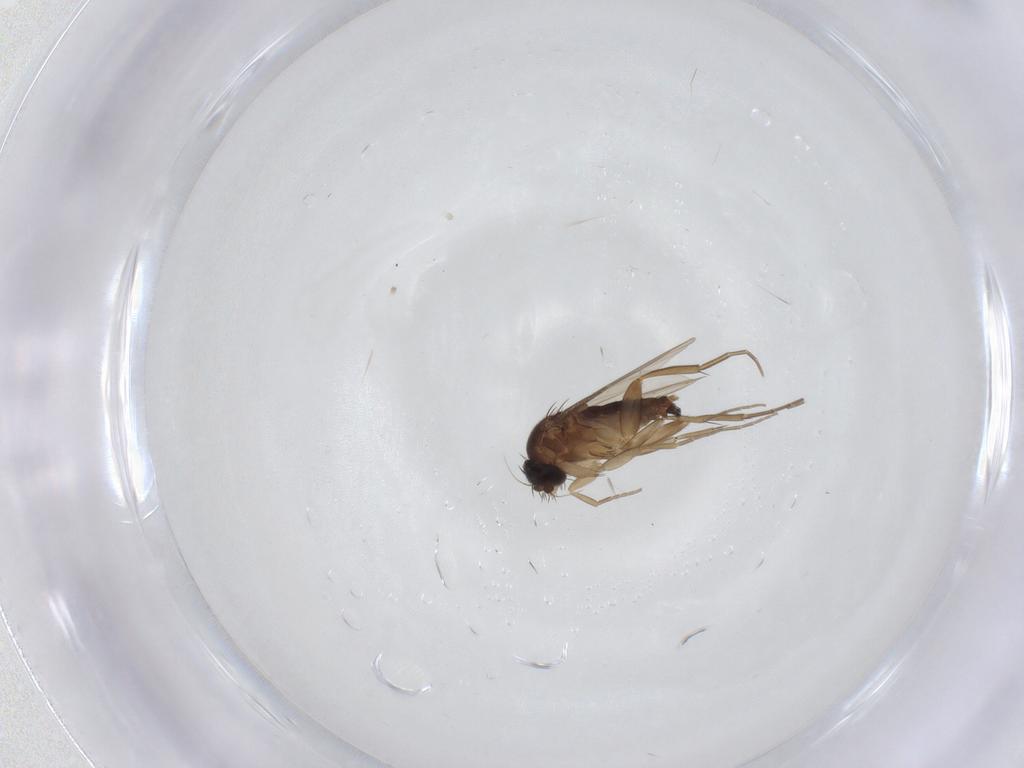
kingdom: Animalia
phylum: Arthropoda
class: Insecta
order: Diptera
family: Phoridae
